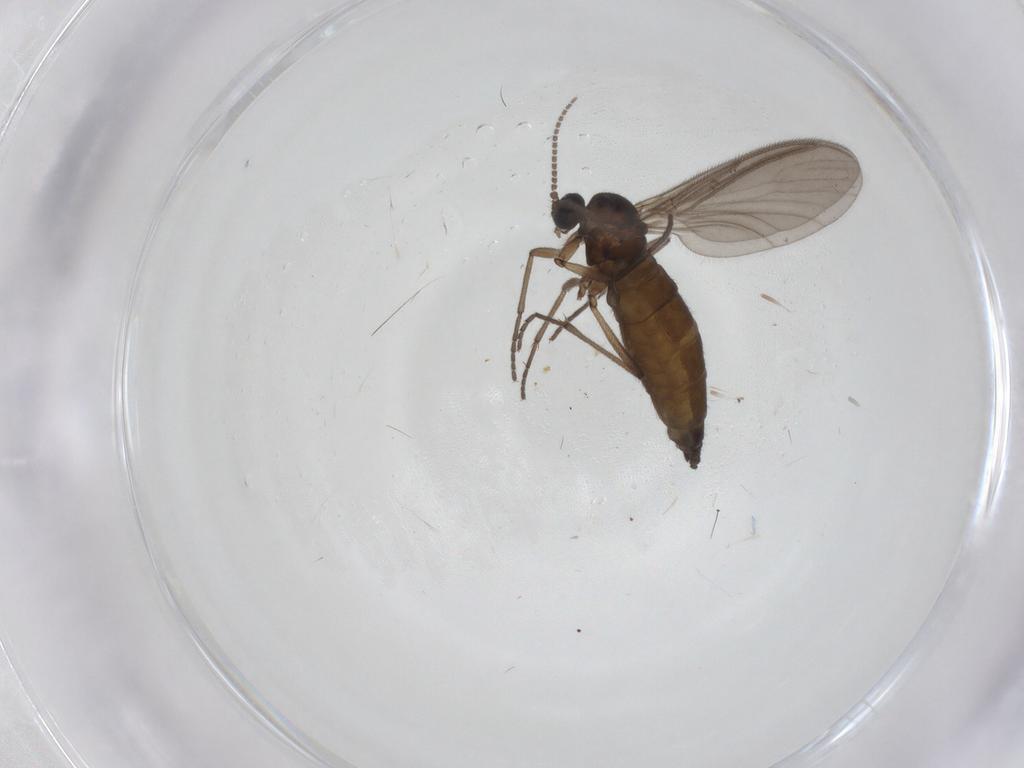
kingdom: Animalia
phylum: Arthropoda
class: Insecta
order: Diptera
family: Sciaridae
